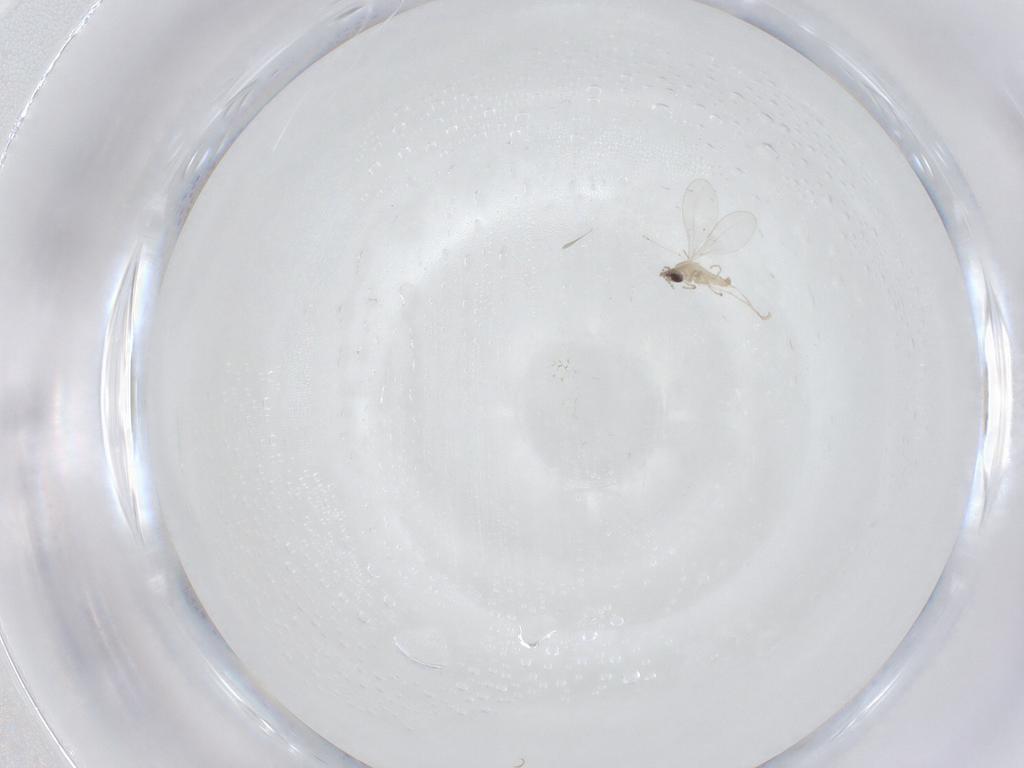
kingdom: Animalia
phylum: Arthropoda
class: Insecta
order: Diptera
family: Cecidomyiidae
